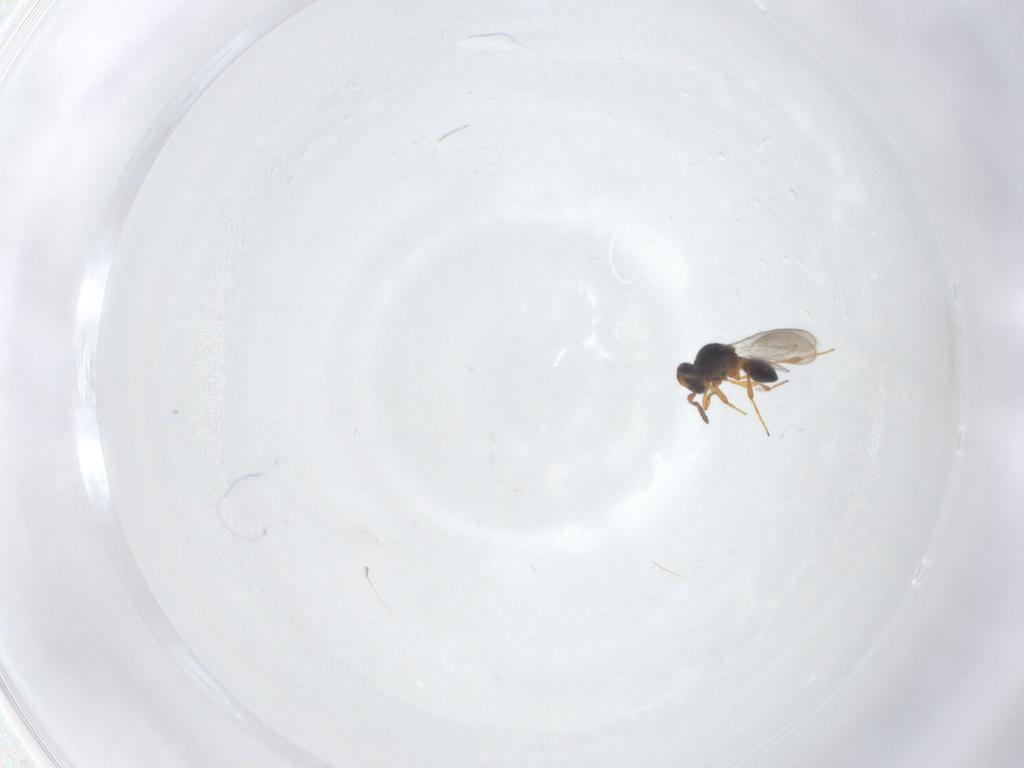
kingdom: Animalia
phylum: Arthropoda
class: Insecta
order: Hymenoptera
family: Platygastridae
